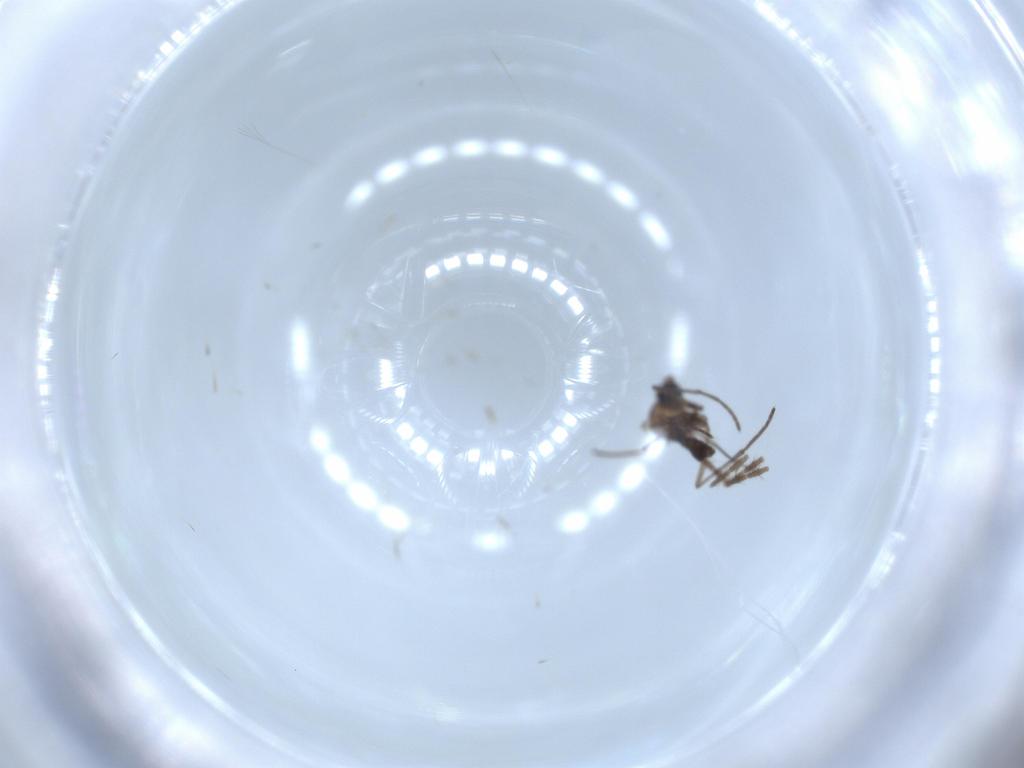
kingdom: Animalia
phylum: Arthropoda
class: Insecta
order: Diptera
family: Sciaridae
